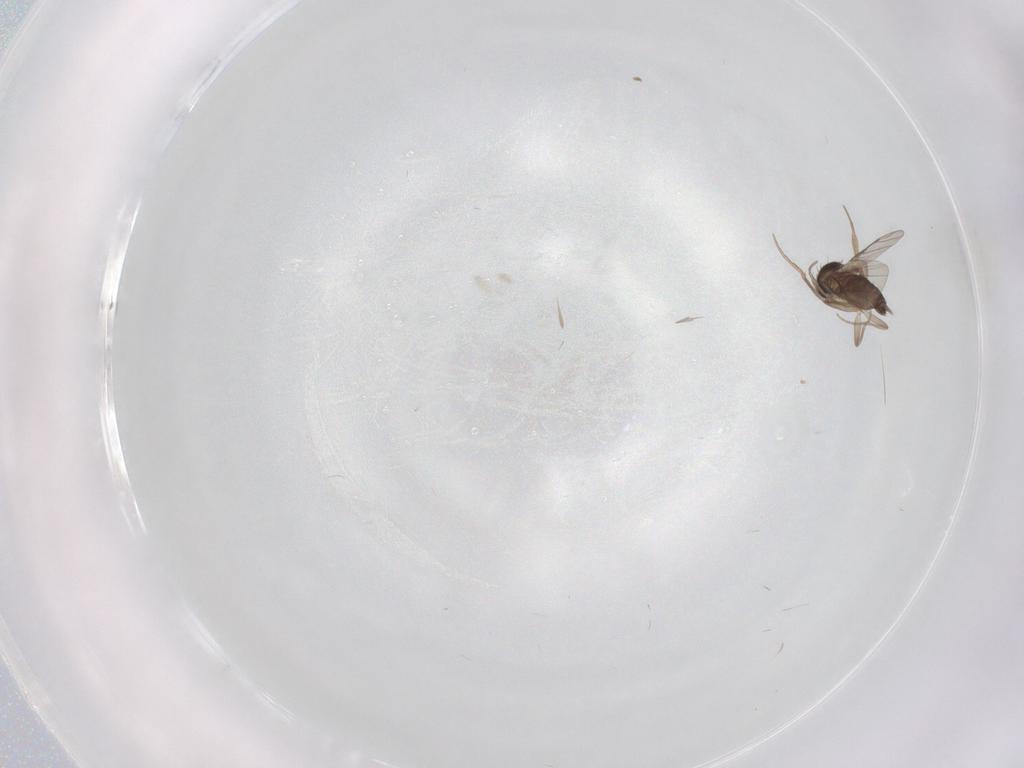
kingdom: Animalia
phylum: Arthropoda
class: Insecta
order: Diptera
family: Phoridae
